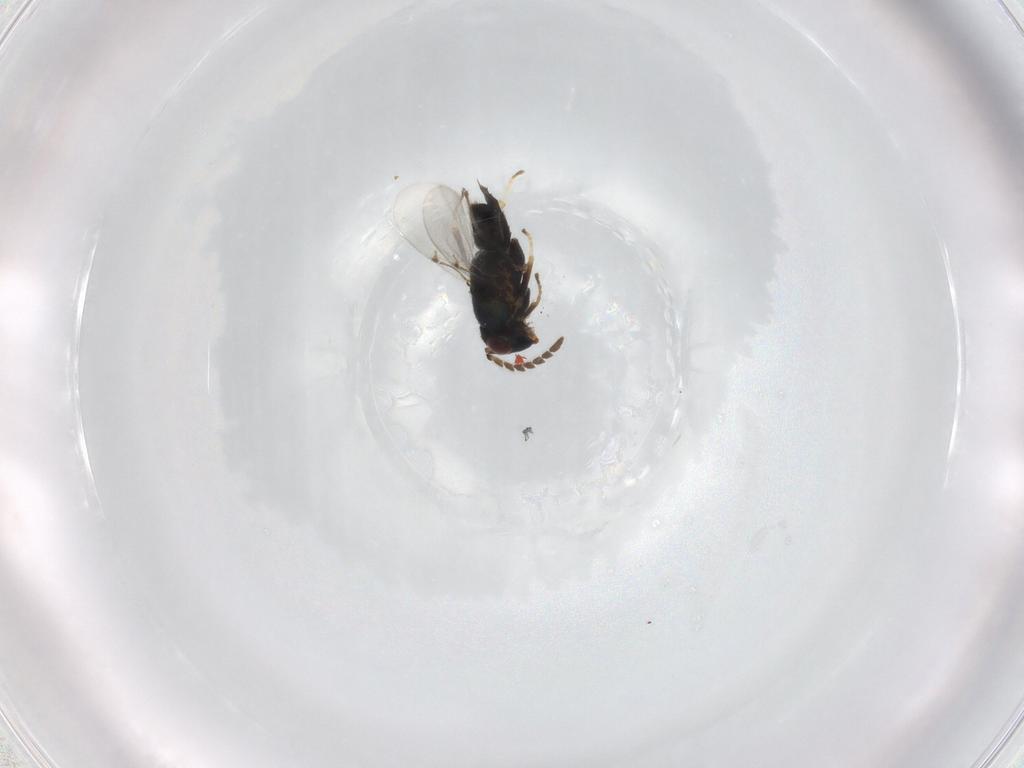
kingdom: Animalia
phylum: Arthropoda
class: Insecta
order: Hymenoptera
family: Encyrtidae
